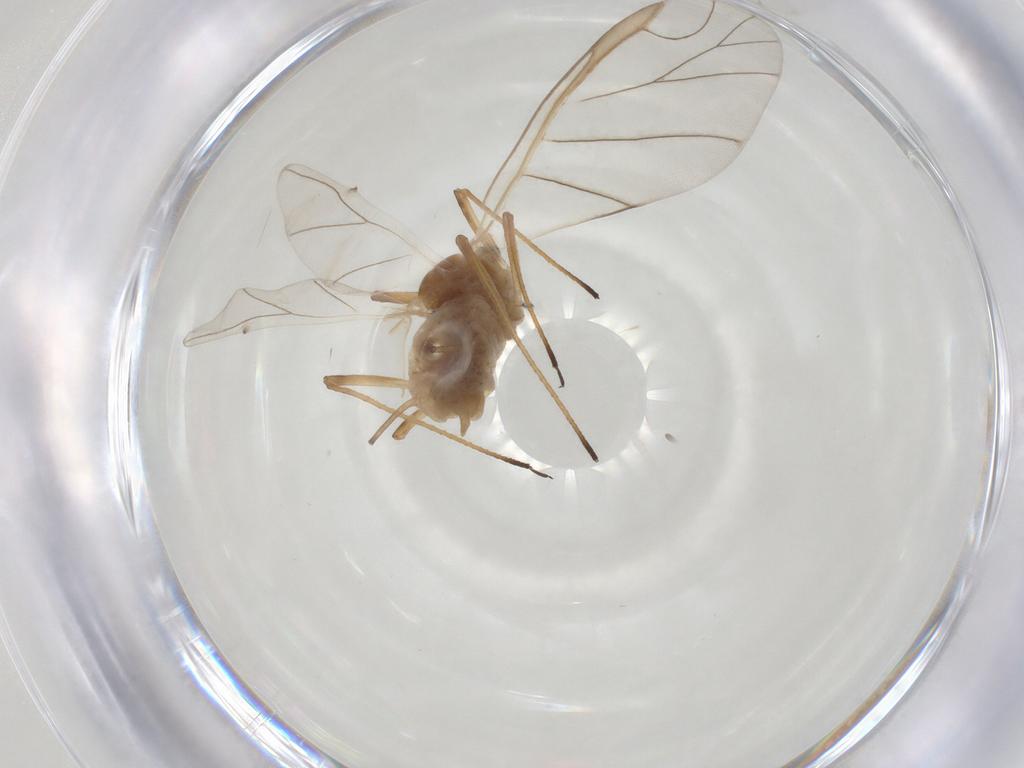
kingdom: Animalia
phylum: Arthropoda
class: Insecta
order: Hemiptera
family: Aphididae
